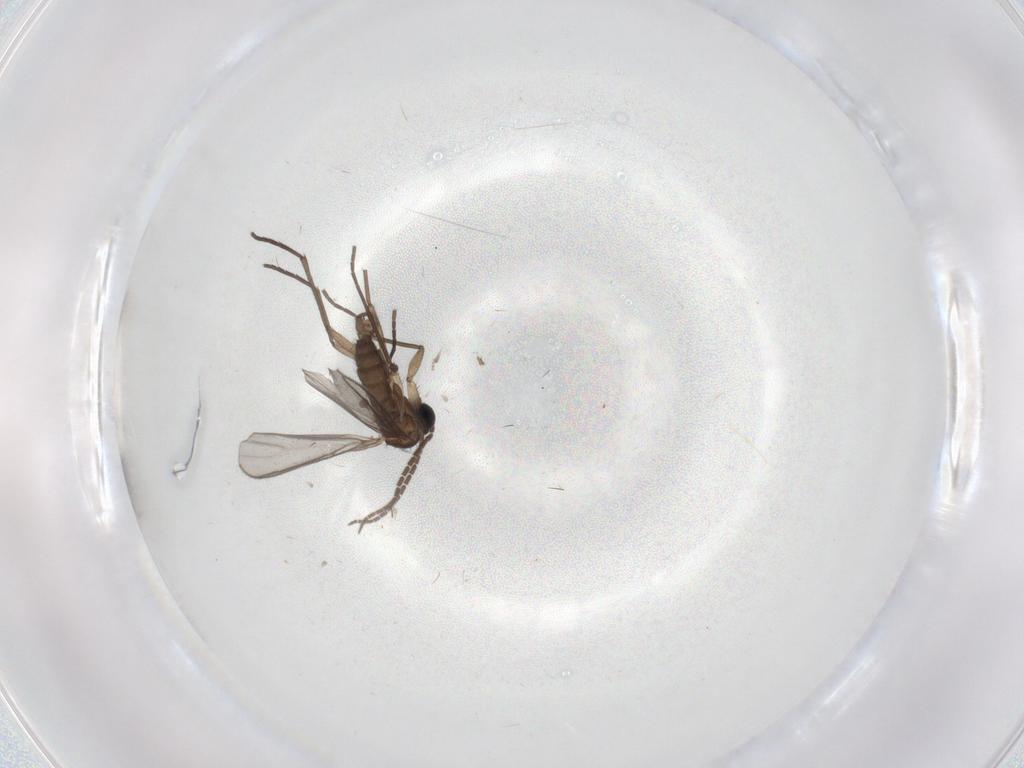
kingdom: Animalia
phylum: Arthropoda
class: Insecta
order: Diptera
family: Sciaridae
